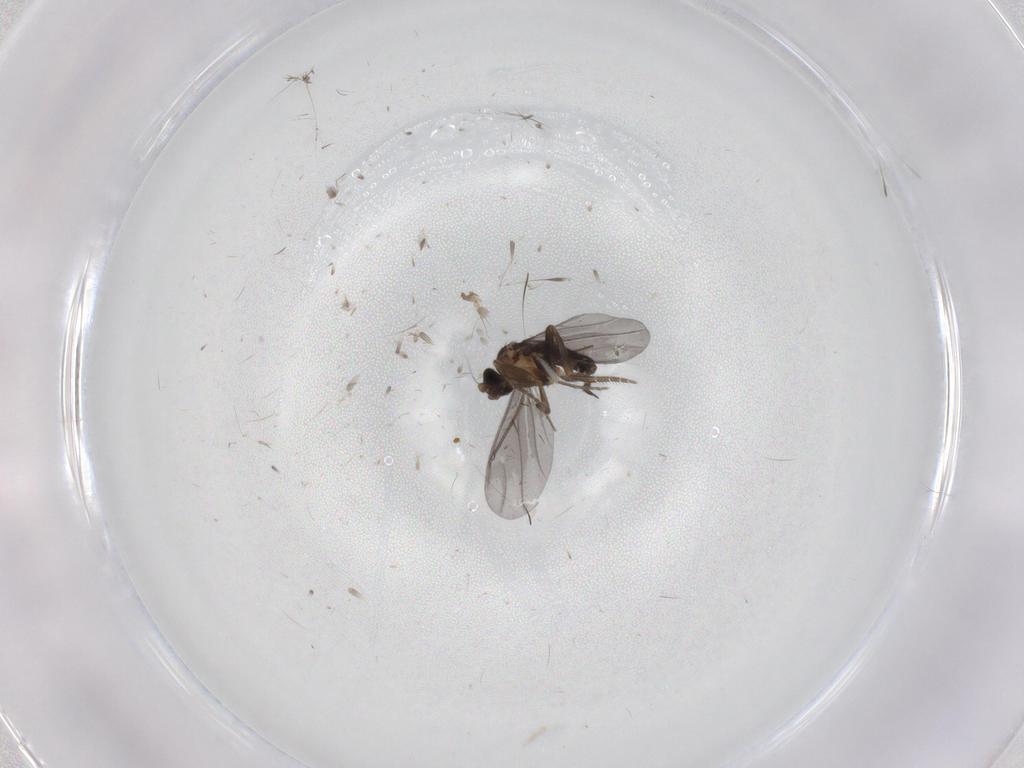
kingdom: Animalia
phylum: Arthropoda
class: Insecta
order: Diptera
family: Phoridae
